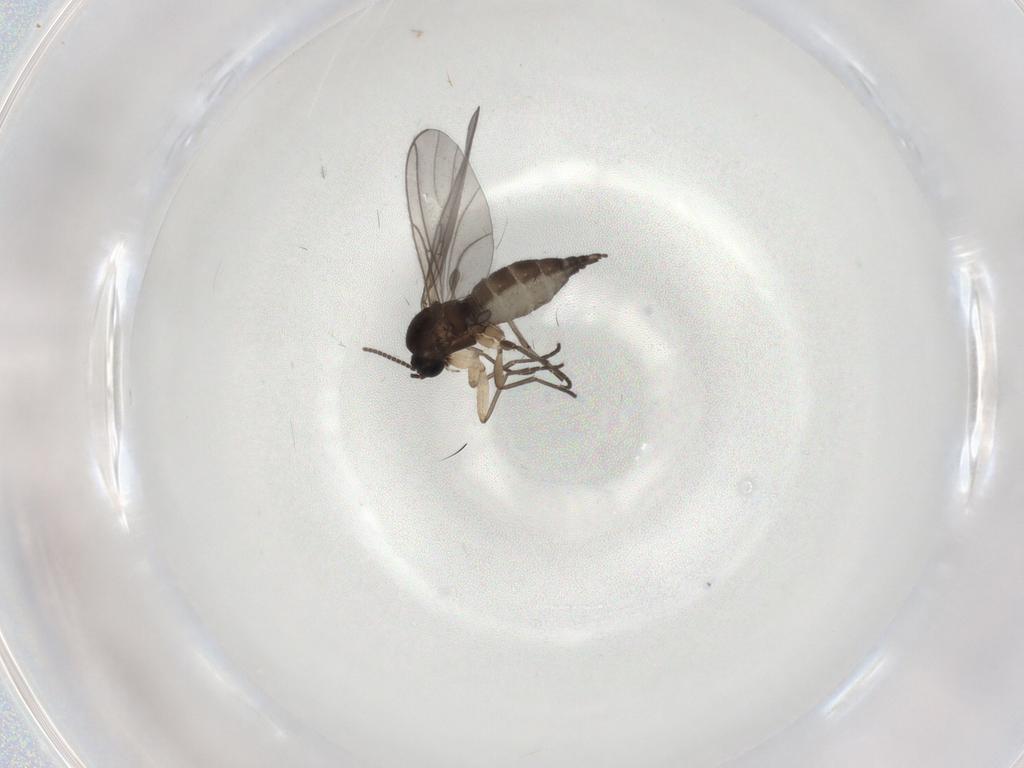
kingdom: Animalia
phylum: Arthropoda
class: Insecta
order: Diptera
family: Sciaridae
